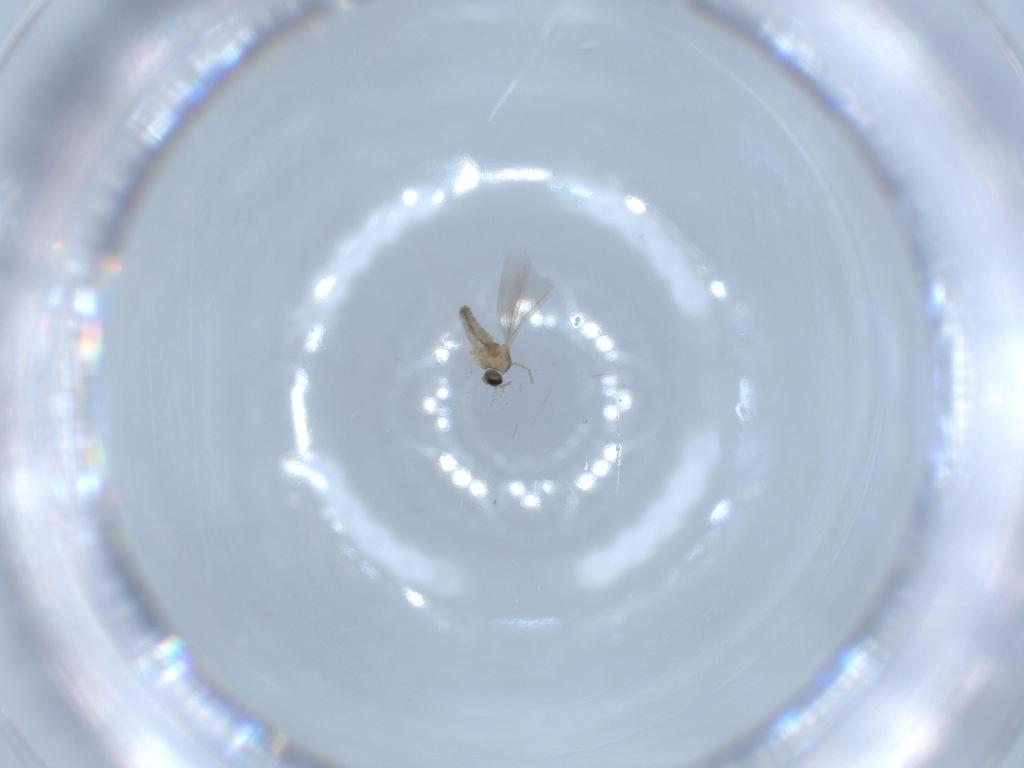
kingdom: Animalia
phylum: Arthropoda
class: Insecta
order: Diptera
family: Cecidomyiidae
